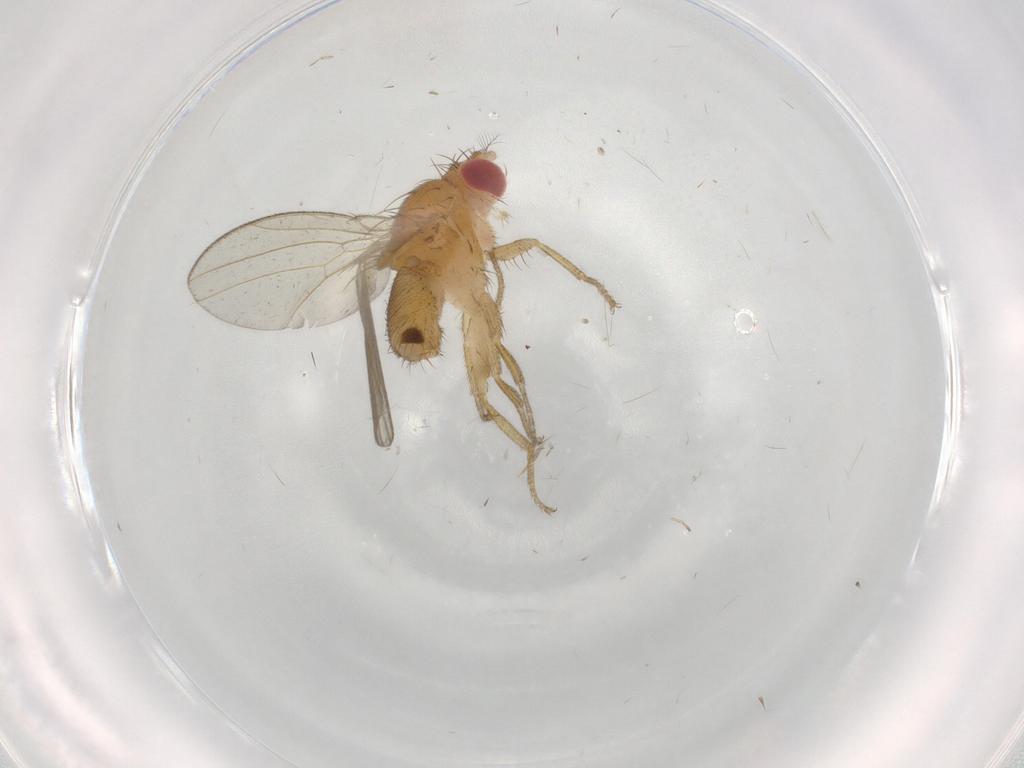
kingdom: Animalia
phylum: Arthropoda
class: Insecta
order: Diptera
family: Drosophilidae
